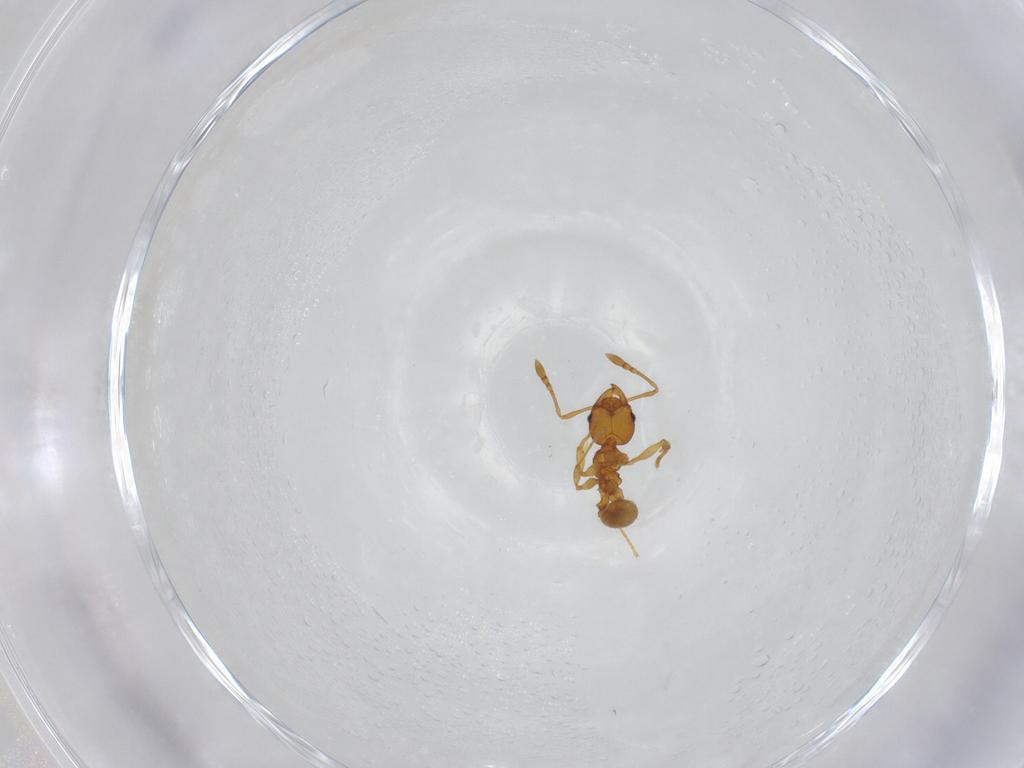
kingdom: Animalia
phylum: Arthropoda
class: Insecta
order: Hymenoptera
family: Formicidae
